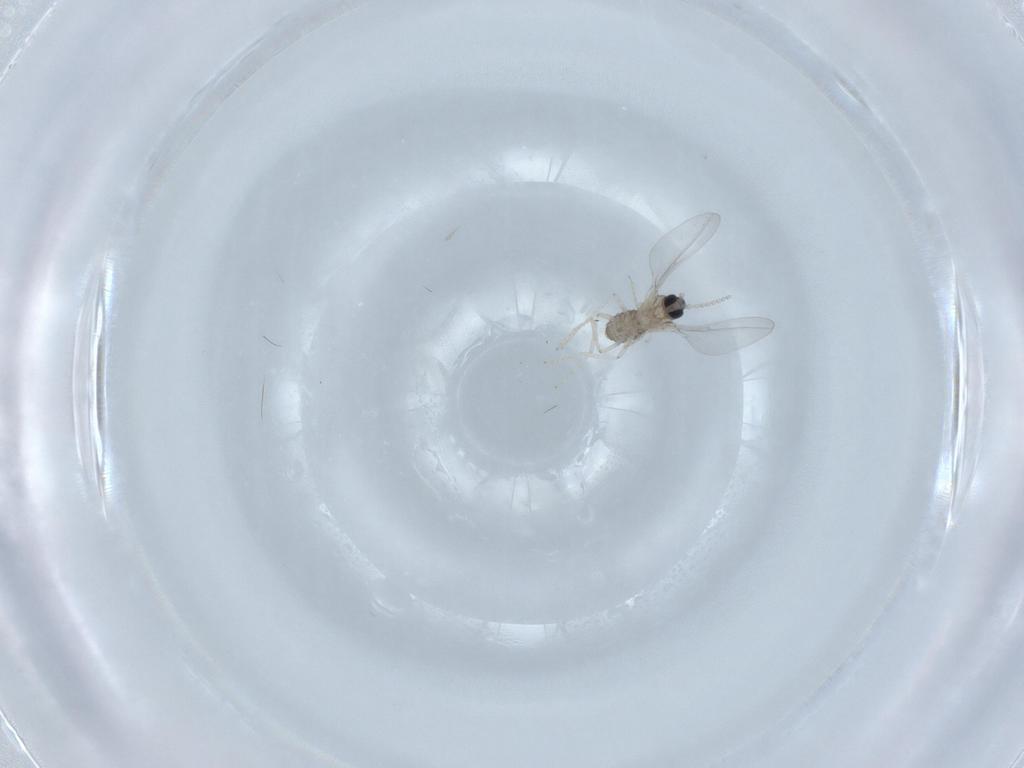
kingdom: Animalia
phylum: Arthropoda
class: Insecta
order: Diptera
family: Cecidomyiidae
